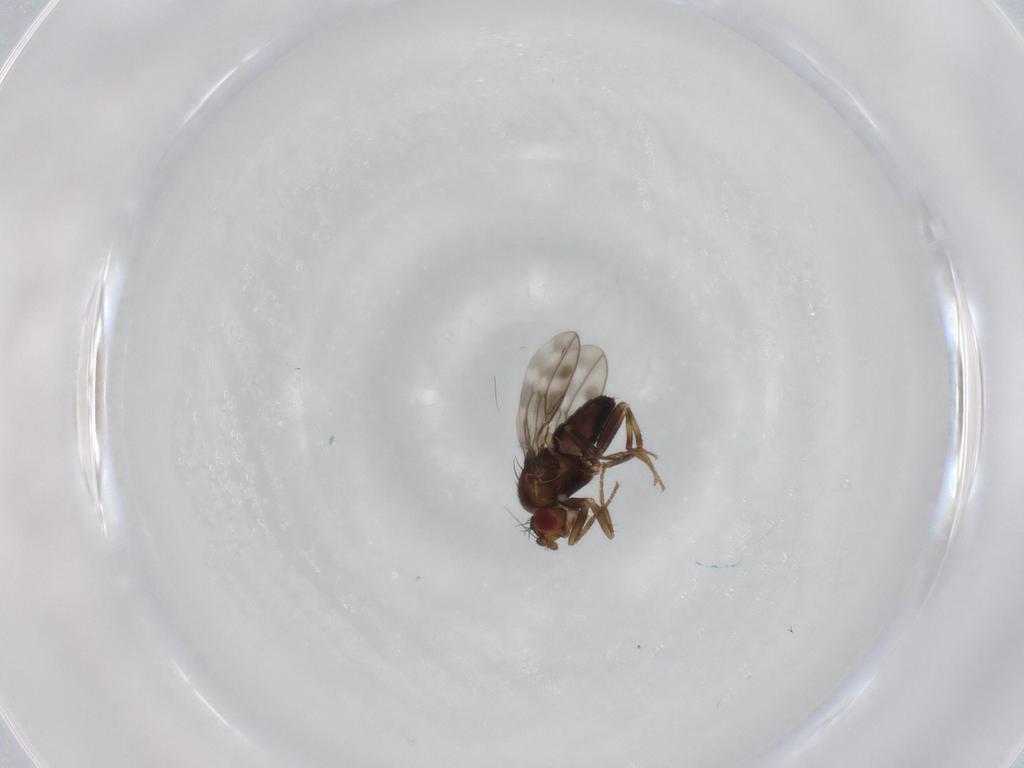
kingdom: Animalia
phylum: Arthropoda
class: Insecta
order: Diptera
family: Sphaeroceridae
